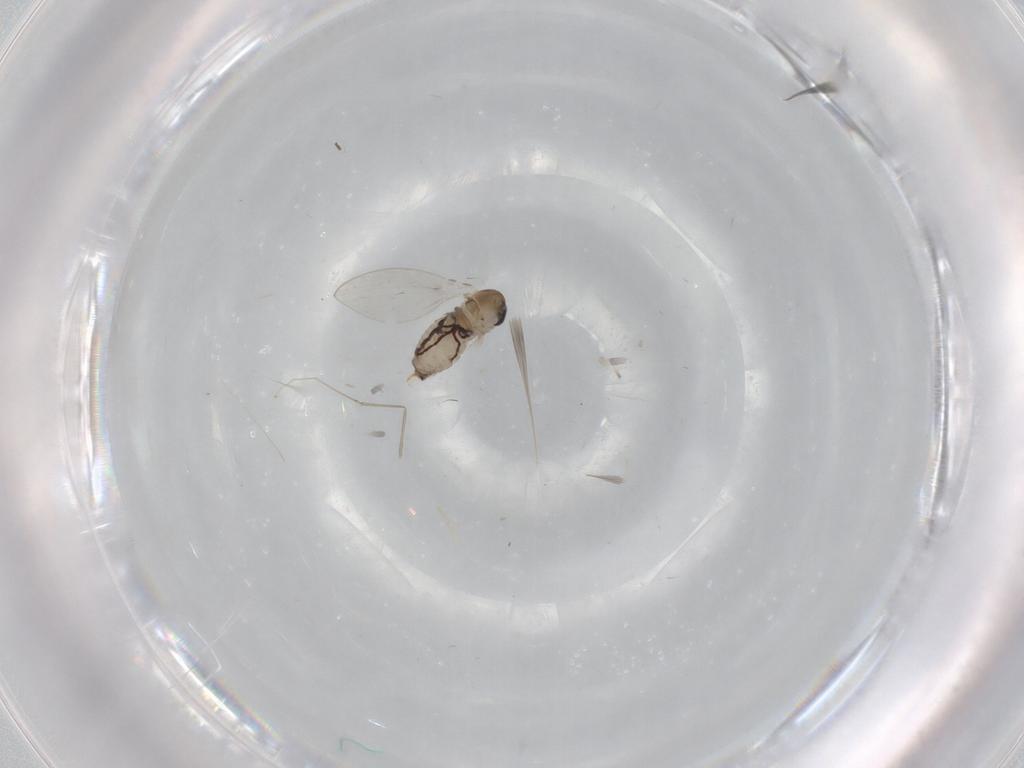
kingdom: Animalia
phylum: Arthropoda
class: Insecta
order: Diptera
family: Psychodidae
